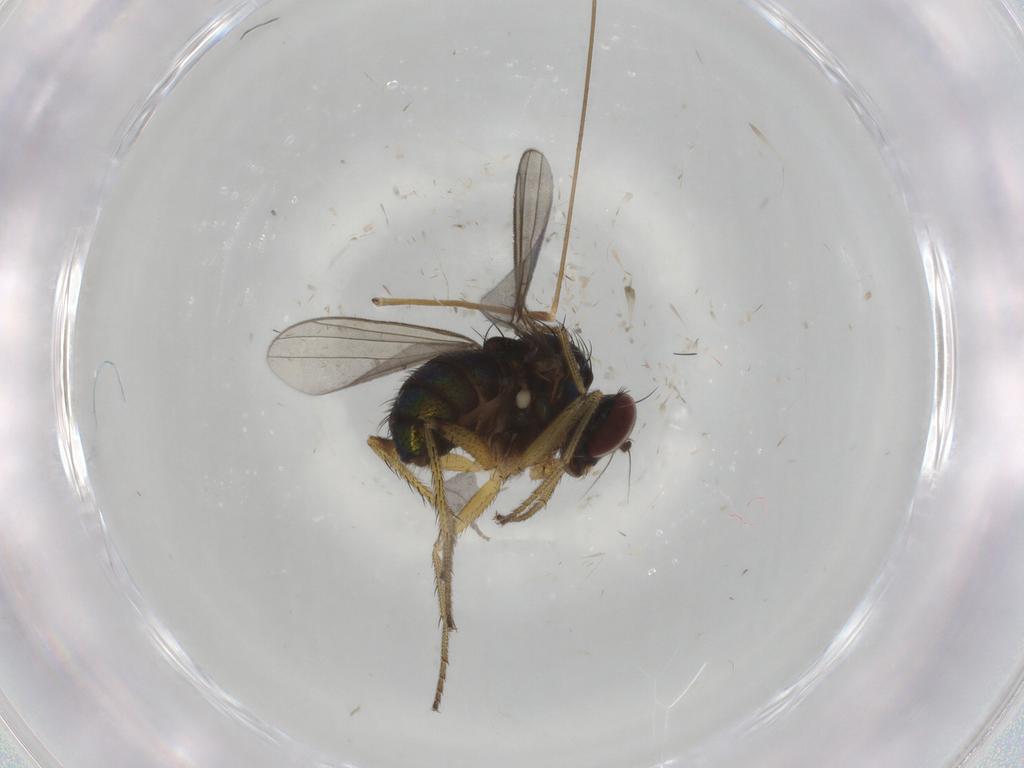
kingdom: Animalia
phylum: Arthropoda
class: Insecta
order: Diptera
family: Dolichopodidae
